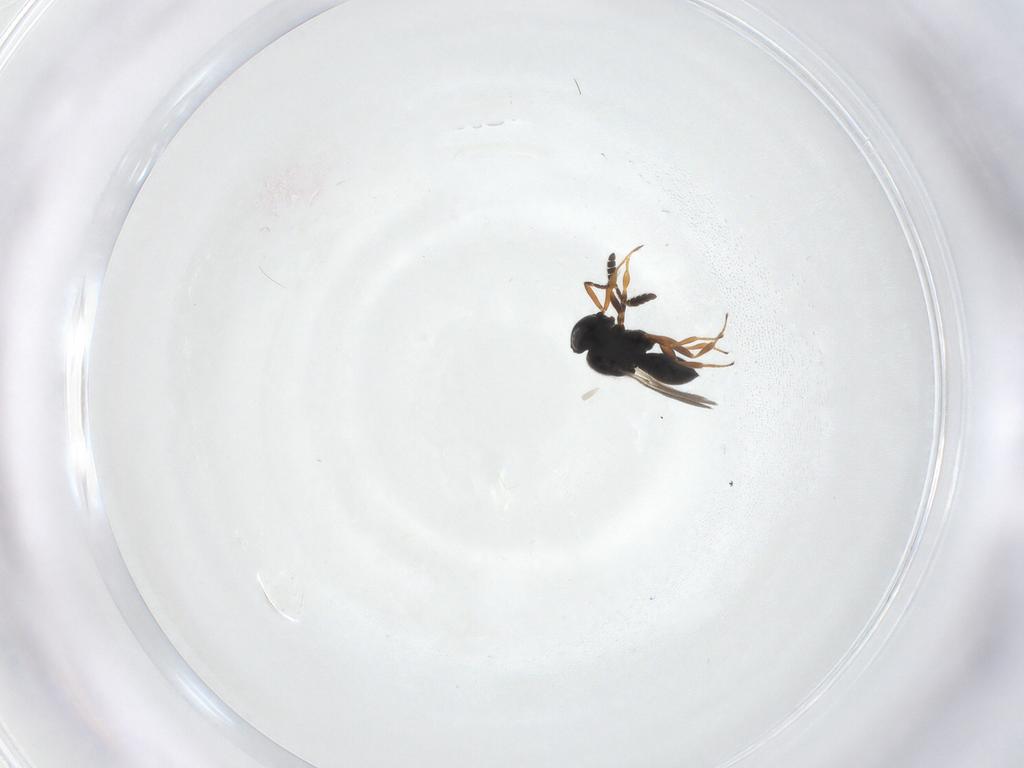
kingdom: Animalia
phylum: Arthropoda
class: Insecta
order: Hymenoptera
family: Scelionidae
